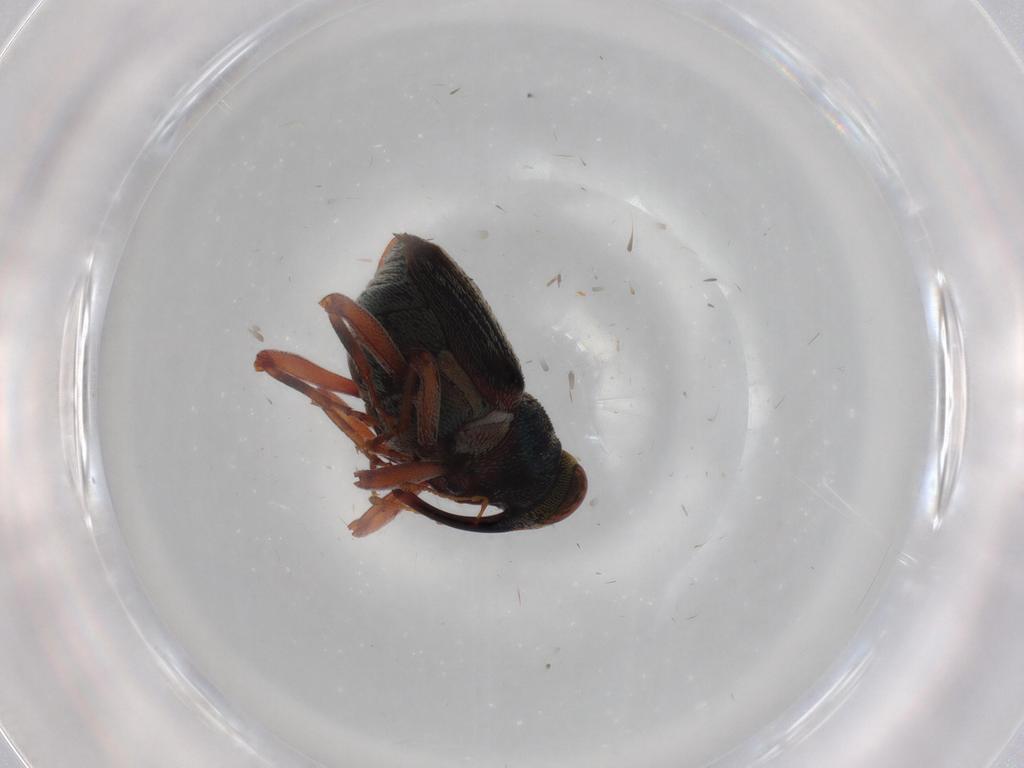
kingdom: Animalia
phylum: Arthropoda
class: Insecta
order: Coleoptera
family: Curculionidae
